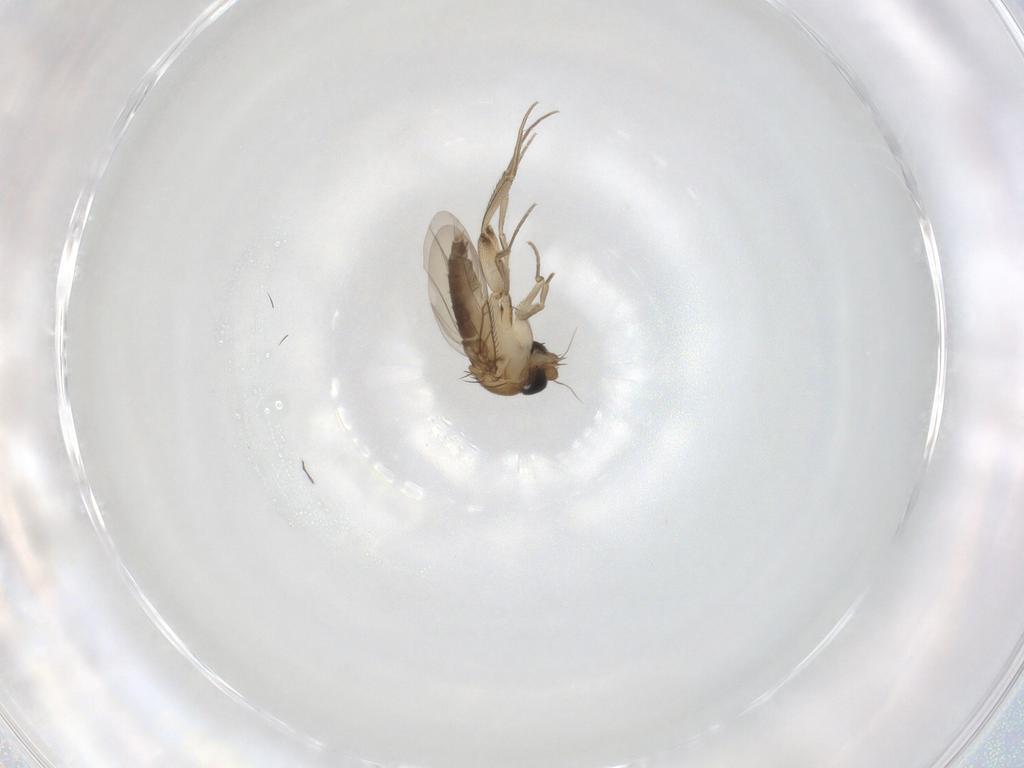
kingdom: Animalia
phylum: Arthropoda
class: Insecta
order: Diptera
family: Phoridae
